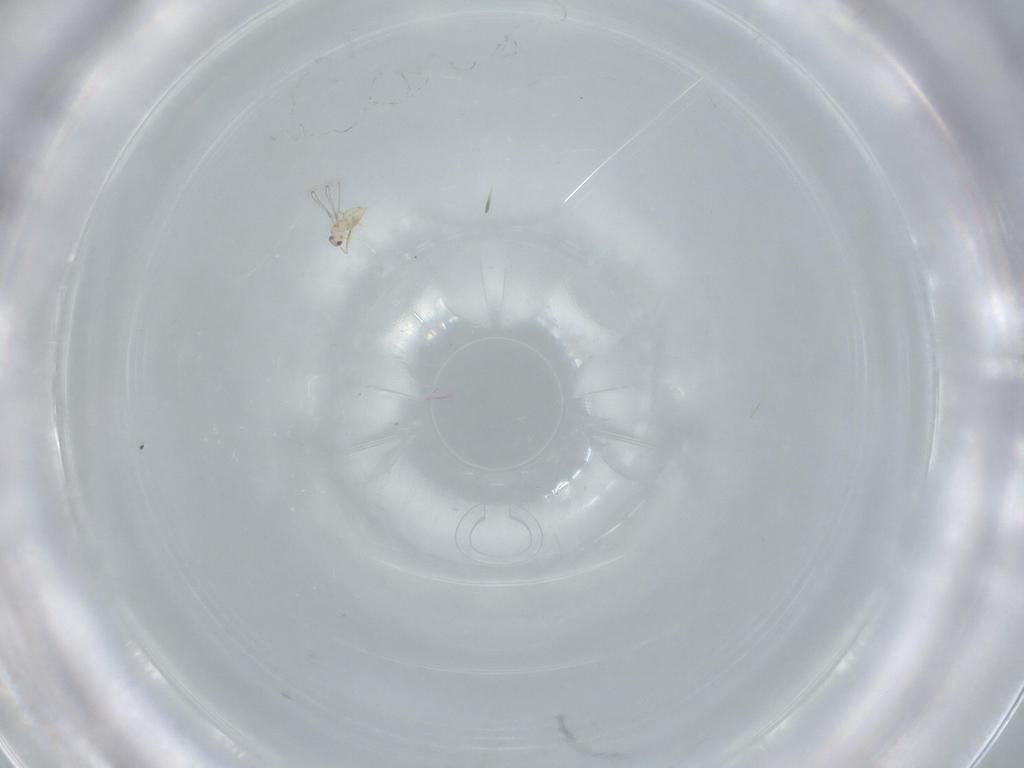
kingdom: Animalia
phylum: Arthropoda
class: Insecta
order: Hymenoptera
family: Mymaridae
